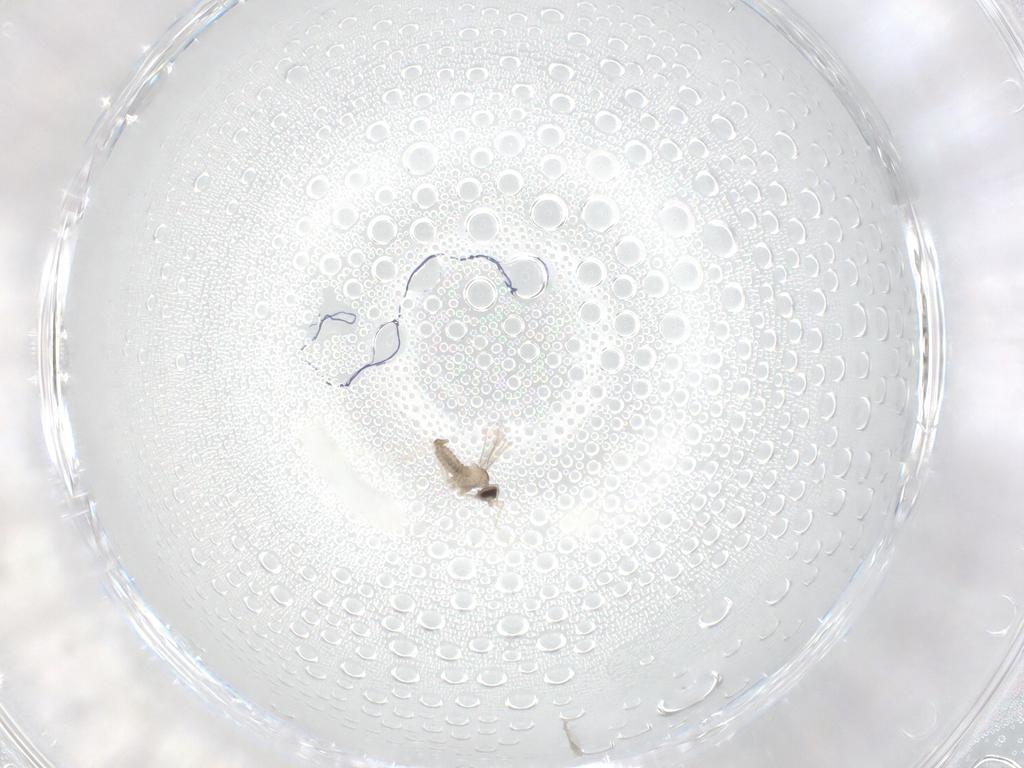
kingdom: Animalia
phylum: Arthropoda
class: Insecta
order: Diptera
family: Cecidomyiidae
